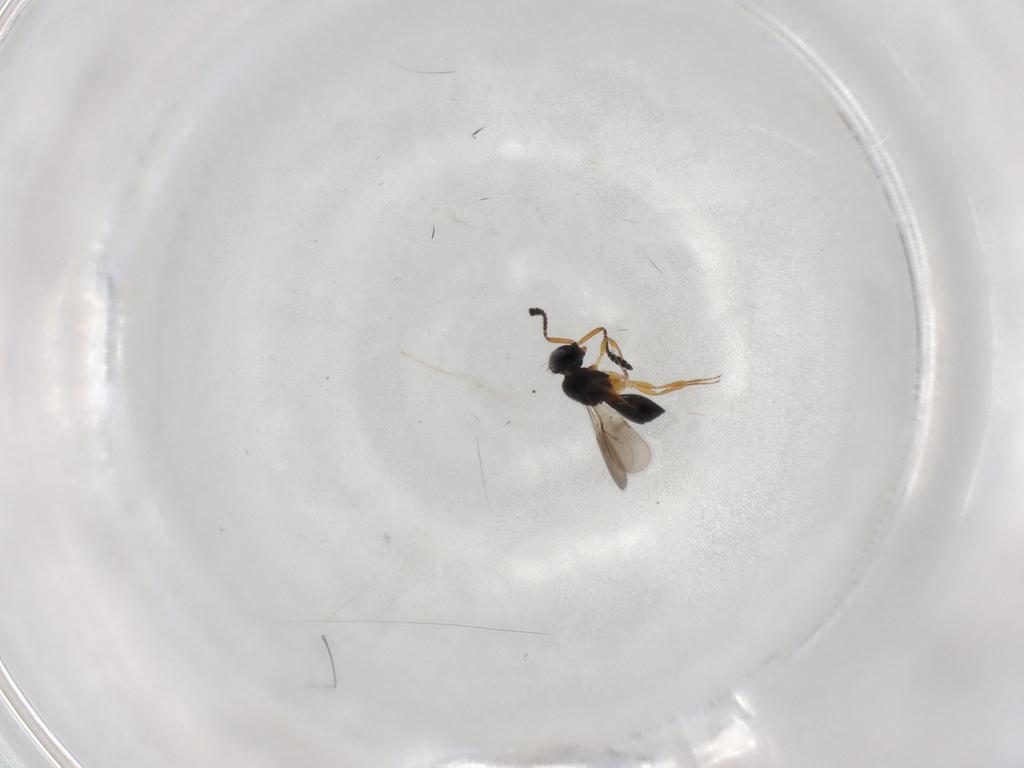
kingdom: Animalia
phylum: Arthropoda
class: Insecta
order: Hymenoptera
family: Scelionidae
